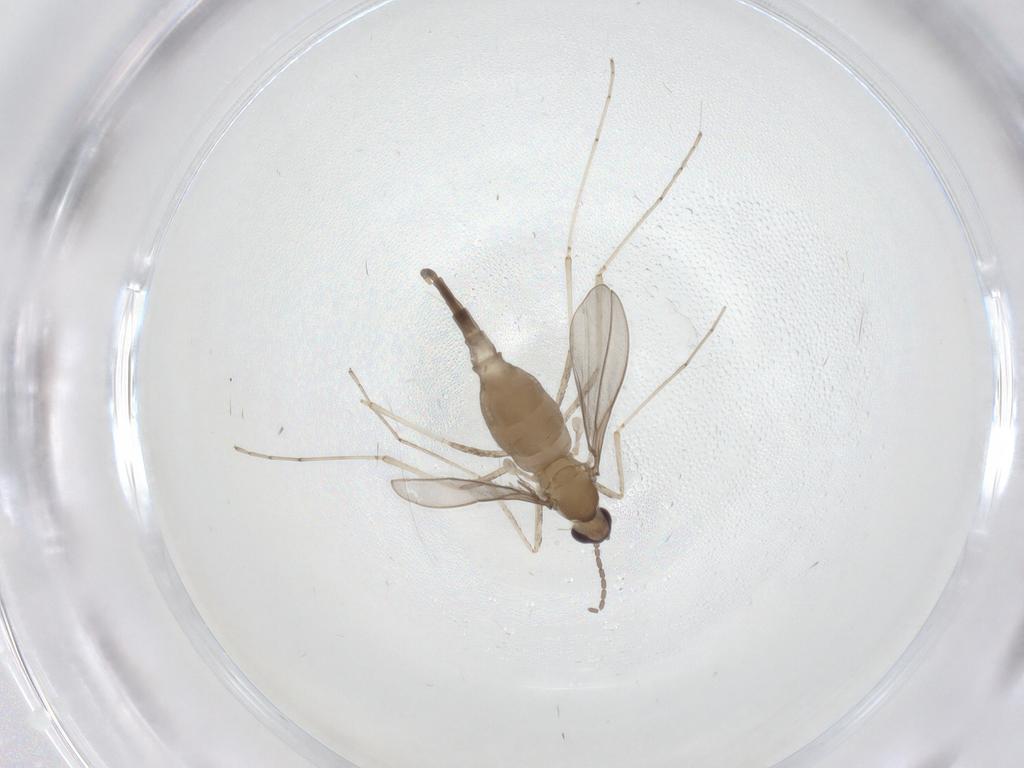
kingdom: Animalia
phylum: Arthropoda
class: Insecta
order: Diptera
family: Cecidomyiidae
